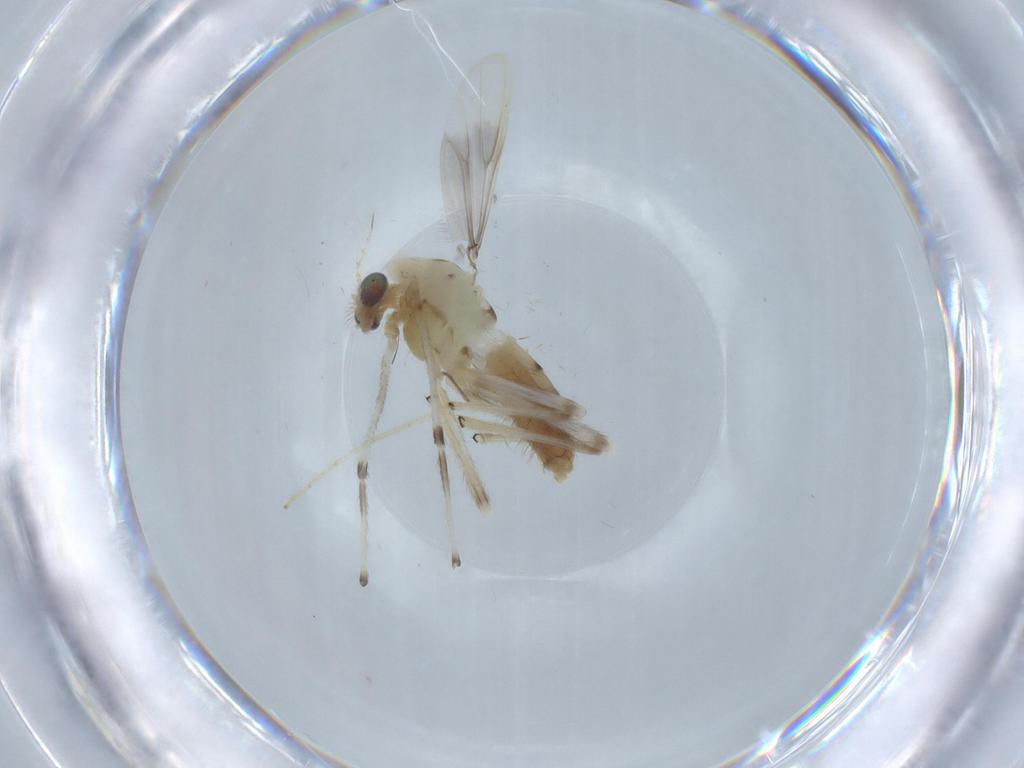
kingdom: Animalia
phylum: Arthropoda
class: Insecta
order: Diptera
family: Chironomidae
